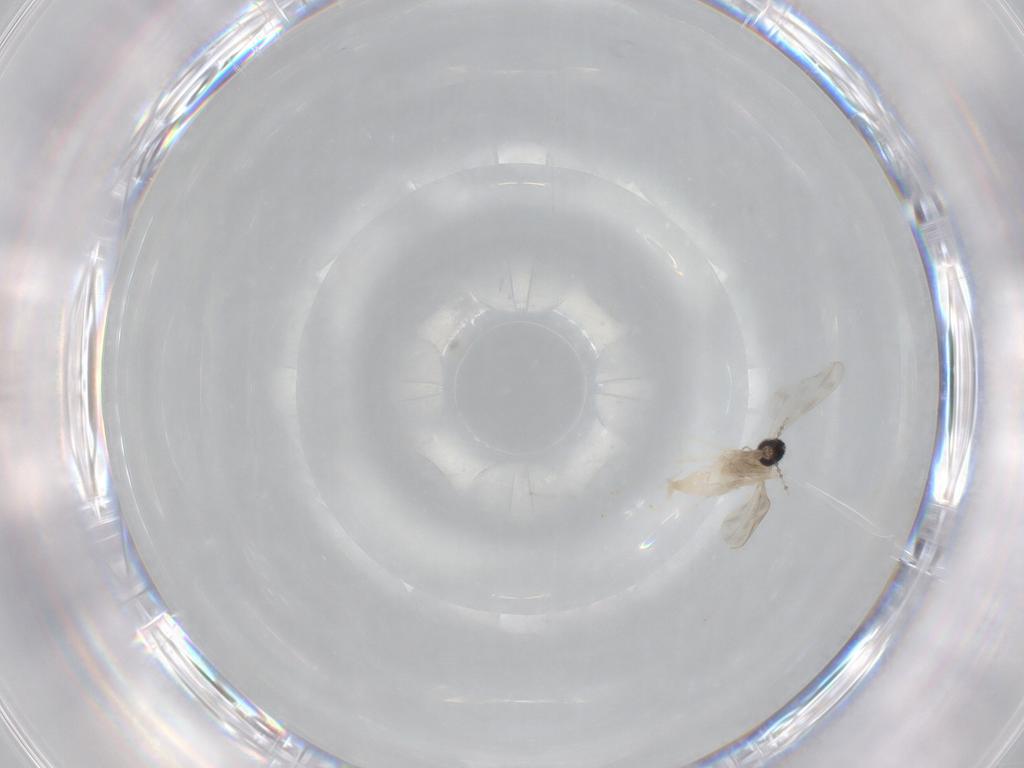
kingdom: Animalia
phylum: Arthropoda
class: Insecta
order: Diptera
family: Cecidomyiidae
